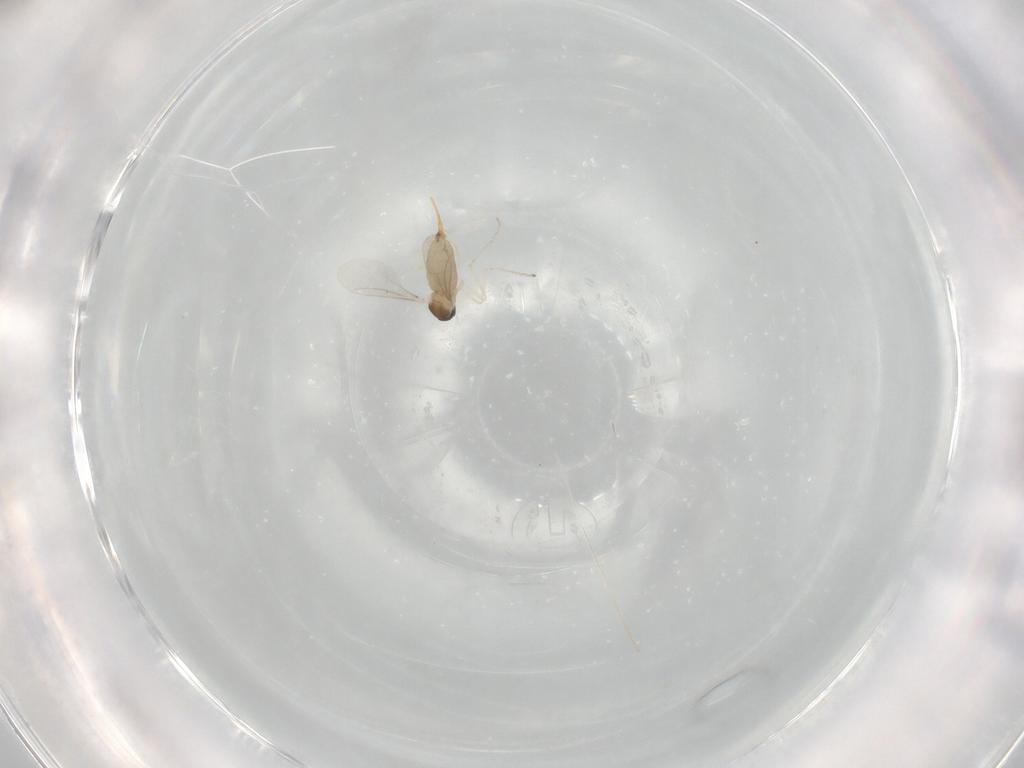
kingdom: Animalia
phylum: Arthropoda
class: Insecta
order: Diptera
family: Cecidomyiidae
